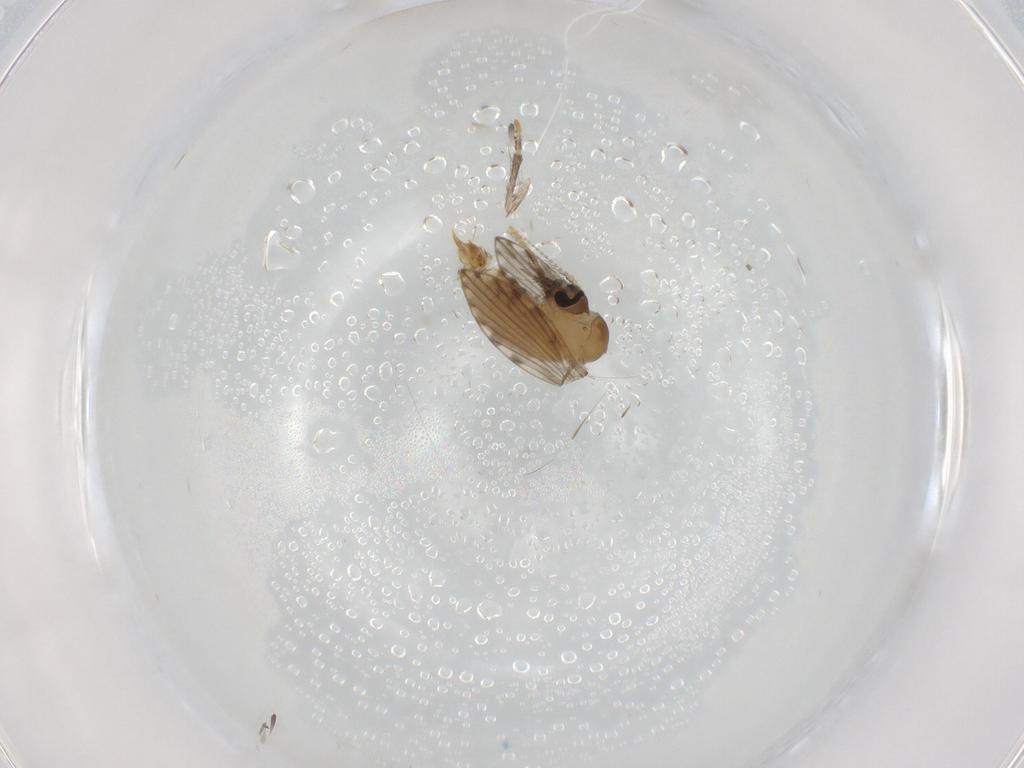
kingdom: Animalia
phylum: Arthropoda
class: Insecta
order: Diptera
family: Psychodidae
